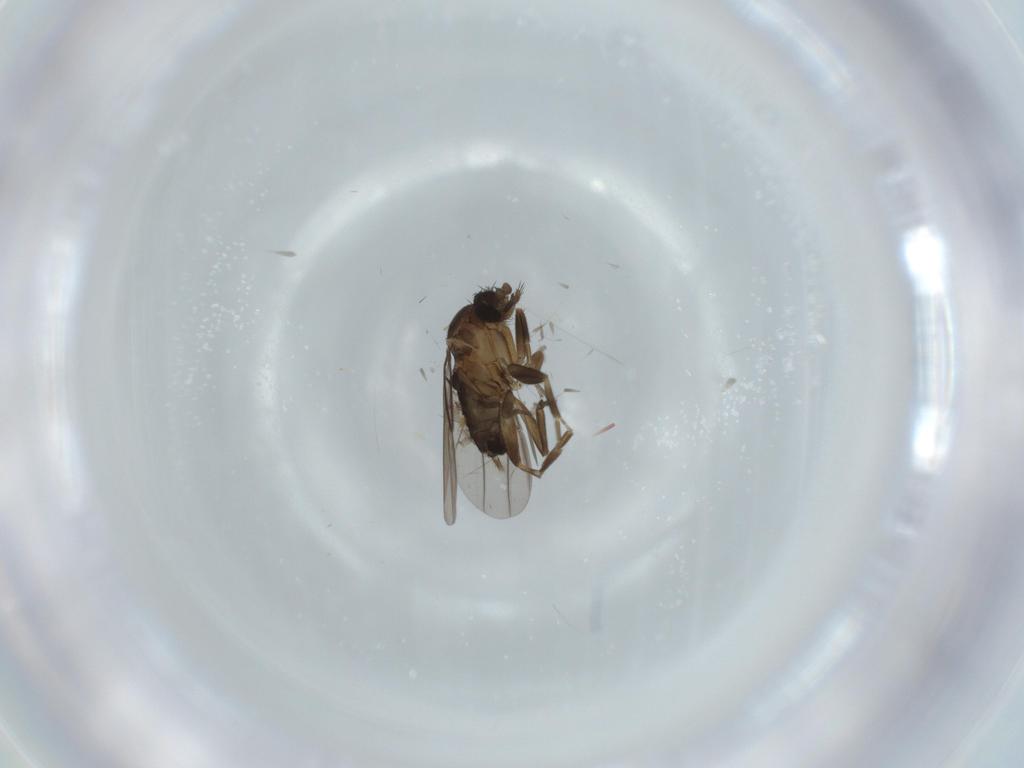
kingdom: Animalia
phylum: Arthropoda
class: Insecta
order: Diptera
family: Phoridae
